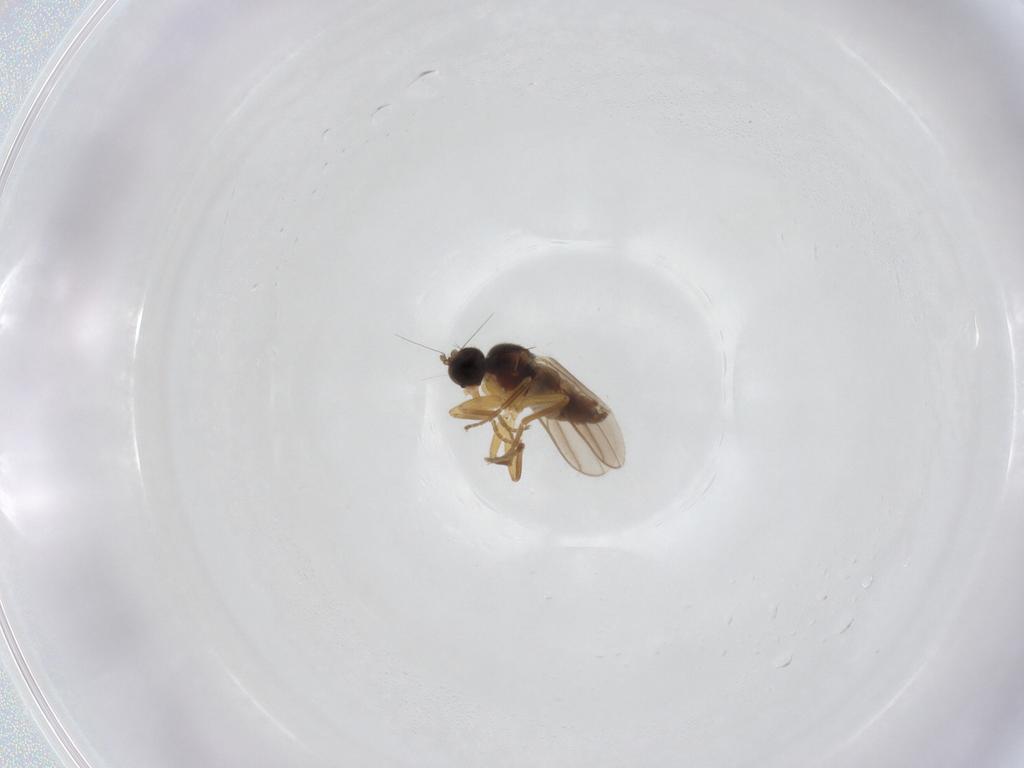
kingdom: Animalia
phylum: Arthropoda
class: Insecta
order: Diptera
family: Hybotidae
